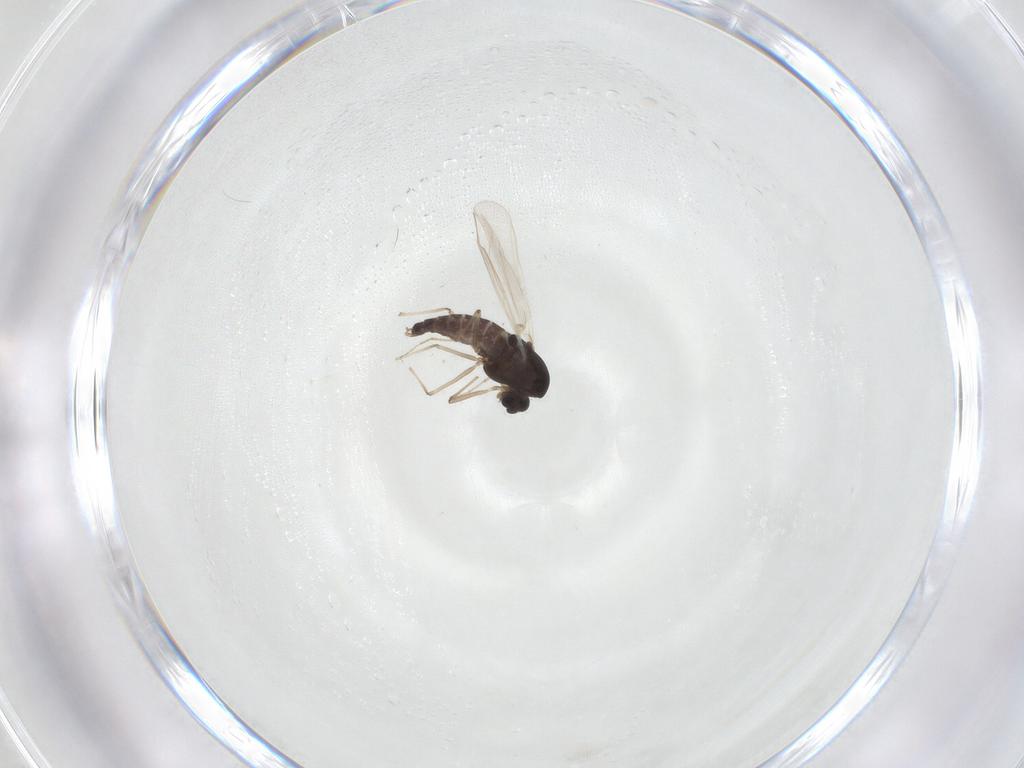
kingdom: Animalia
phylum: Arthropoda
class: Insecta
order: Diptera
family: Chironomidae
